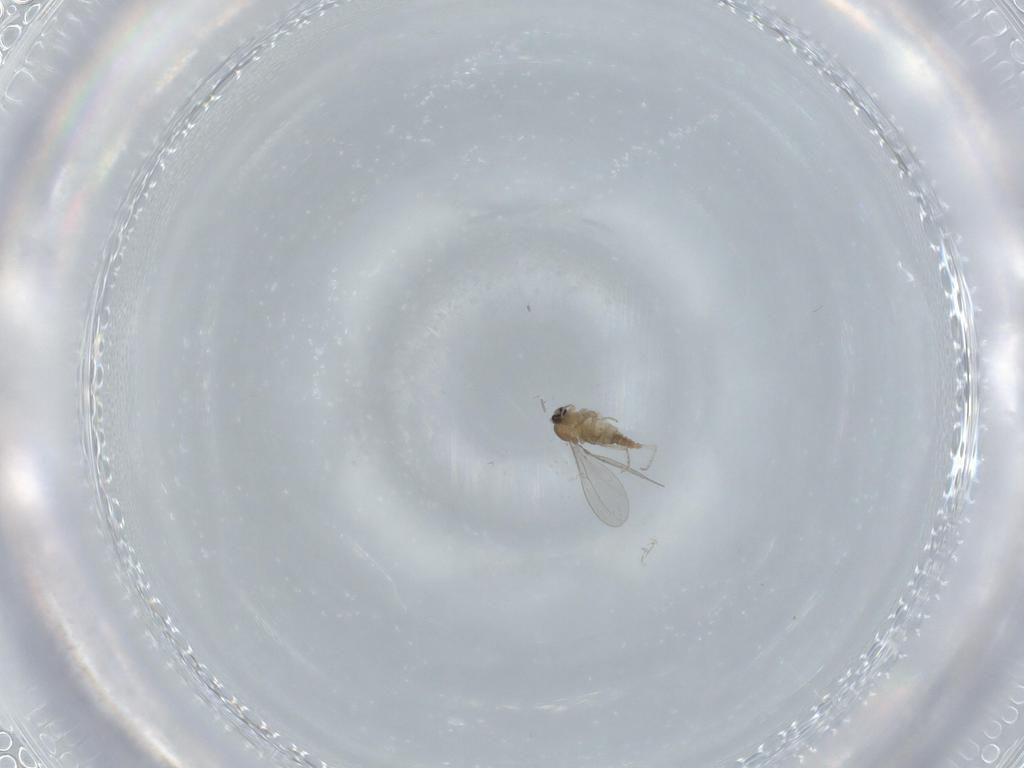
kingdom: Animalia
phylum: Arthropoda
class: Insecta
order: Diptera
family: Cecidomyiidae
